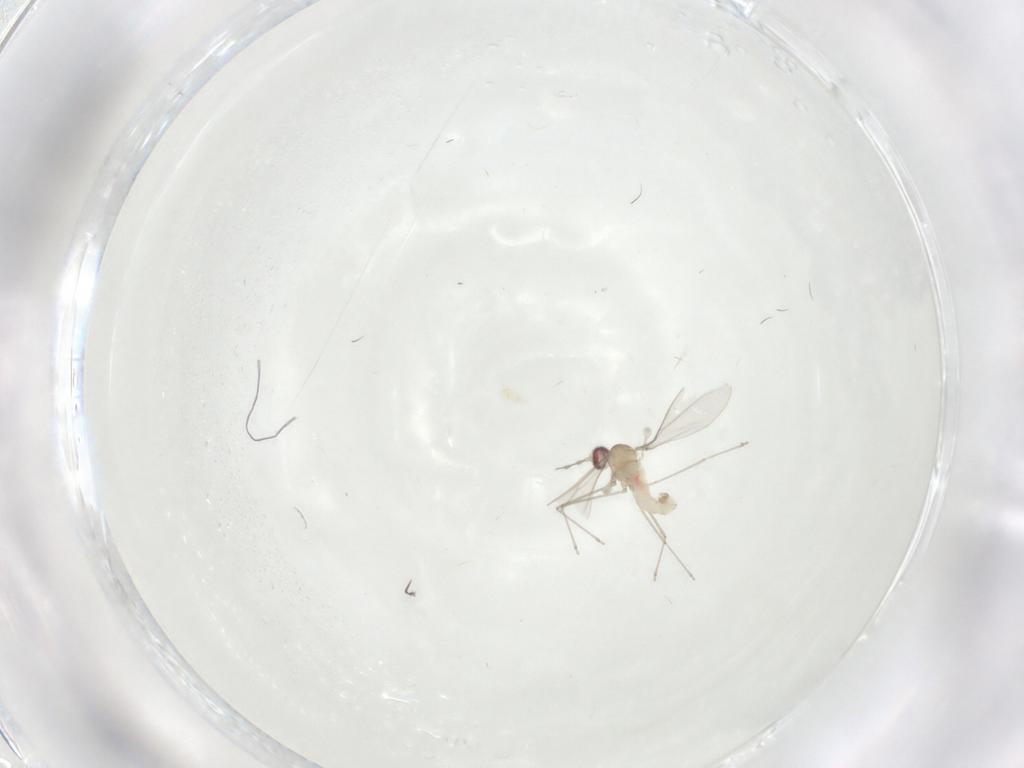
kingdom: Animalia
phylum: Arthropoda
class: Insecta
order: Diptera
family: Cecidomyiidae
